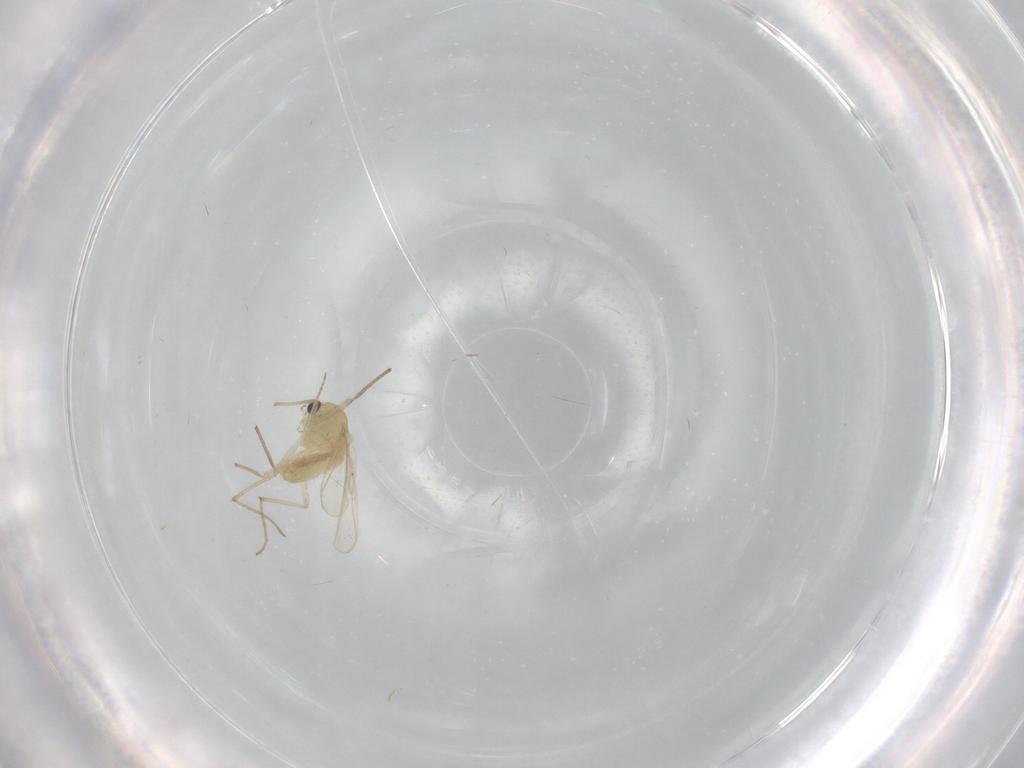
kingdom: Animalia
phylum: Arthropoda
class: Insecta
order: Diptera
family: Chironomidae
